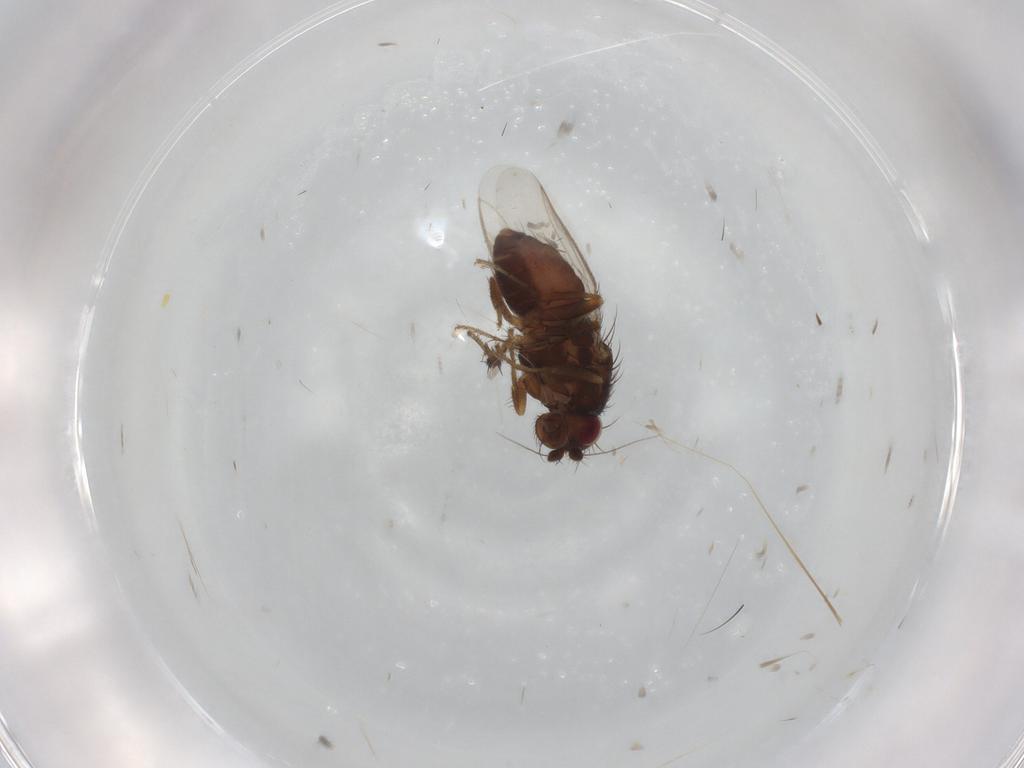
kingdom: Animalia
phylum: Arthropoda
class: Insecta
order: Diptera
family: Sphaeroceridae
